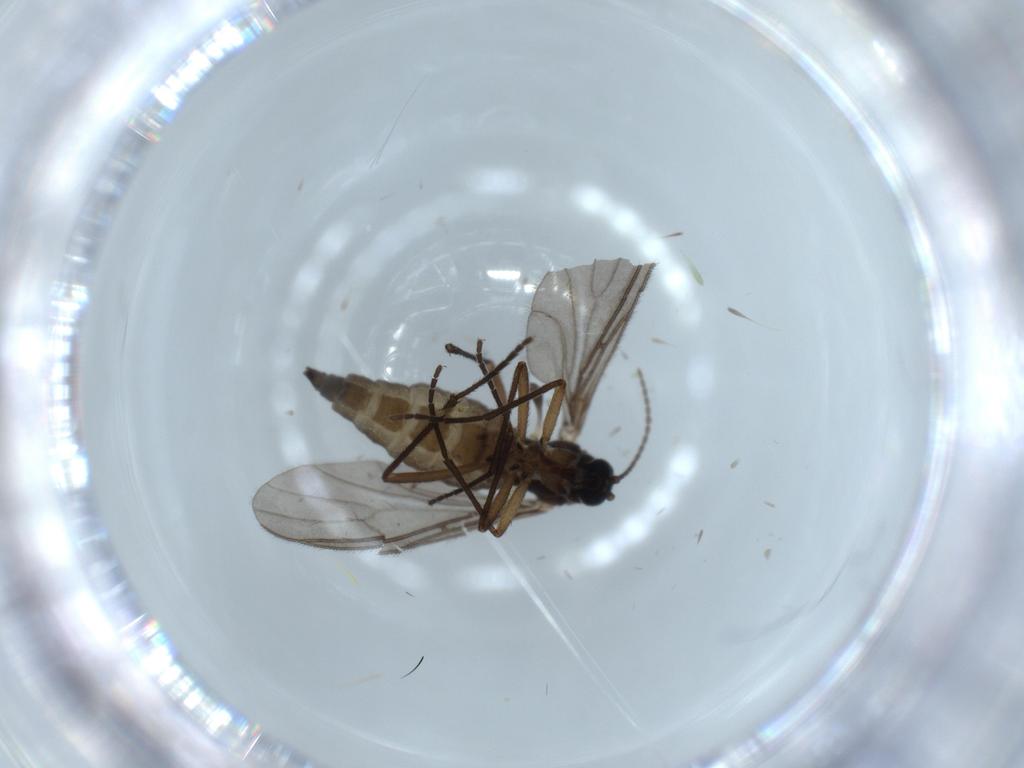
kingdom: Animalia
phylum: Arthropoda
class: Insecta
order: Diptera
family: Sciaridae
